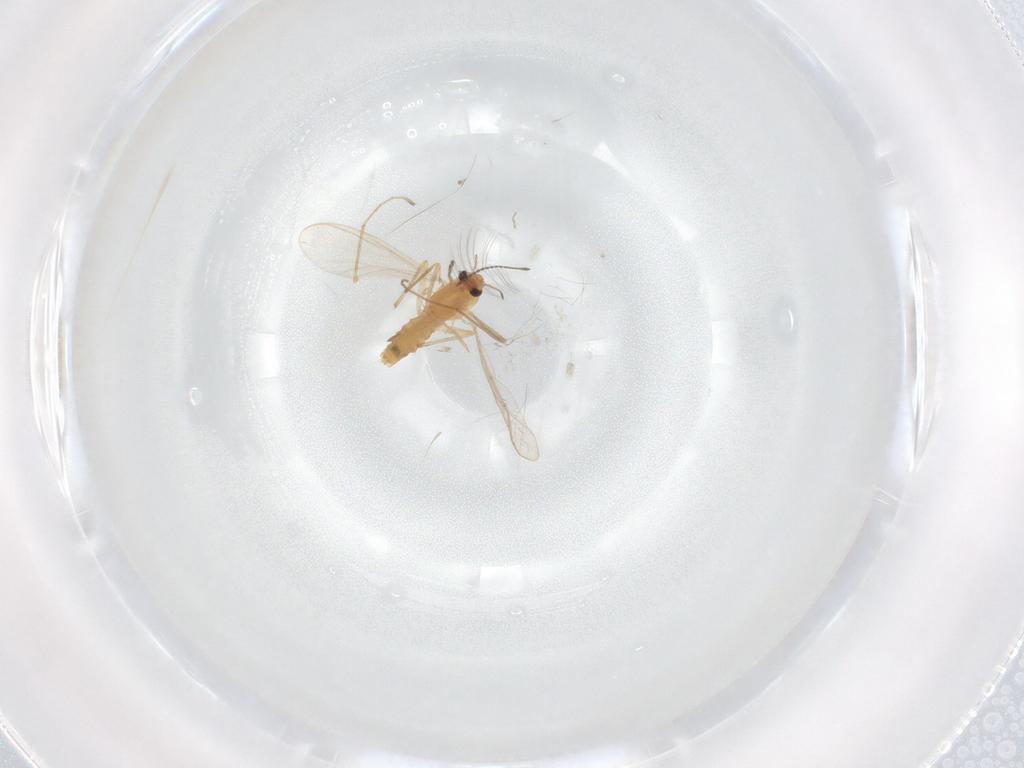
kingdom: Animalia
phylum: Arthropoda
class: Insecta
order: Diptera
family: Chironomidae
